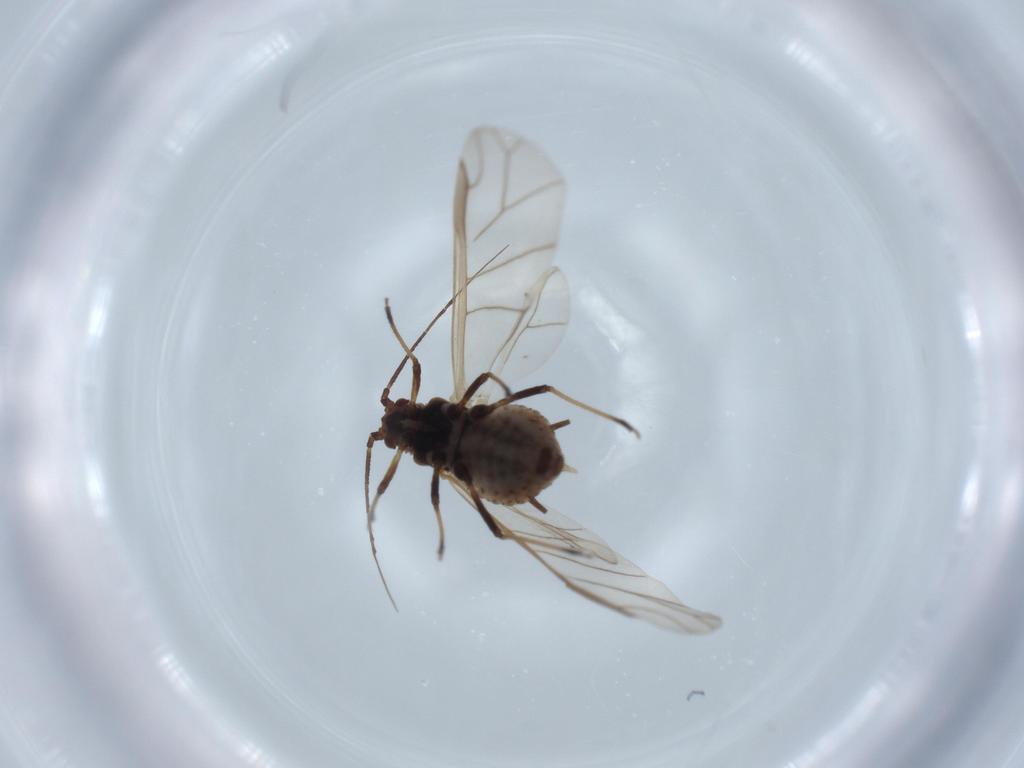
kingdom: Animalia
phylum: Arthropoda
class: Insecta
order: Hemiptera
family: Aphididae
